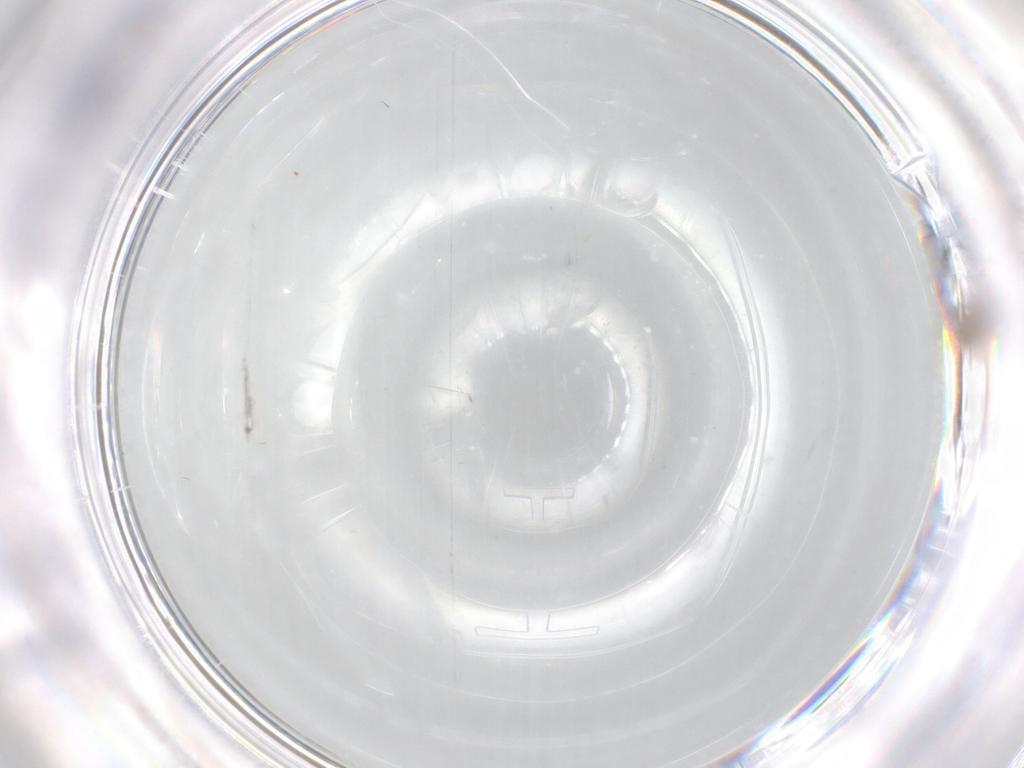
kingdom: Animalia
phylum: Arthropoda
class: Insecta
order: Diptera
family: Cecidomyiidae
